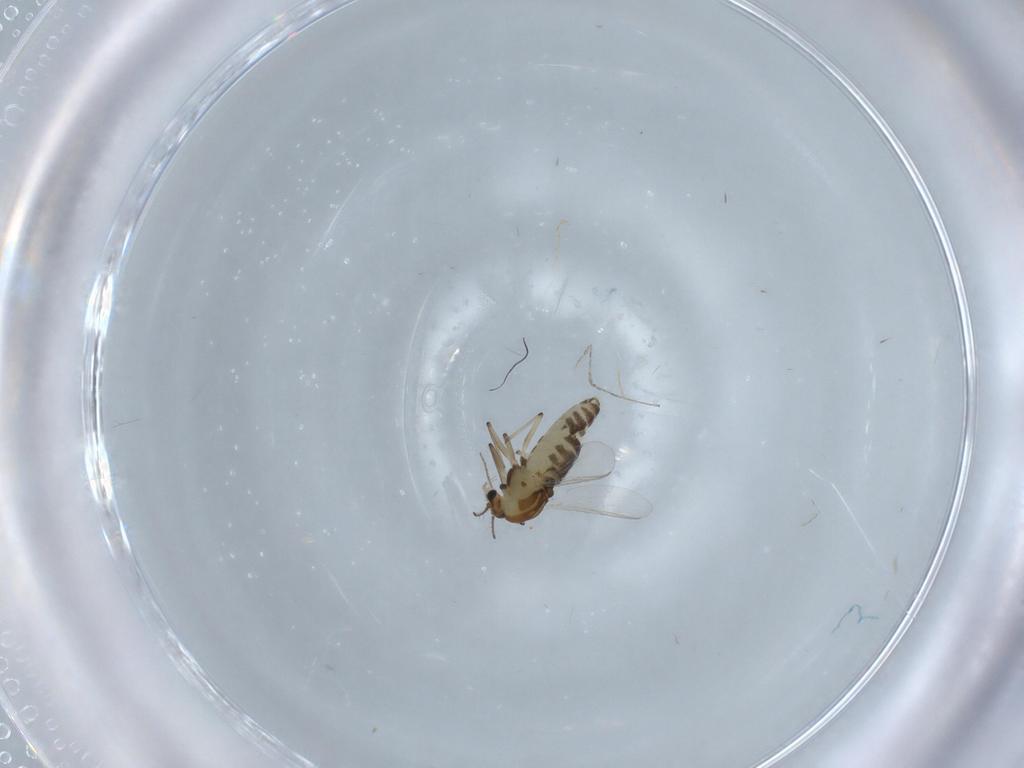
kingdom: Animalia
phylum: Arthropoda
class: Insecta
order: Diptera
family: Chironomidae
